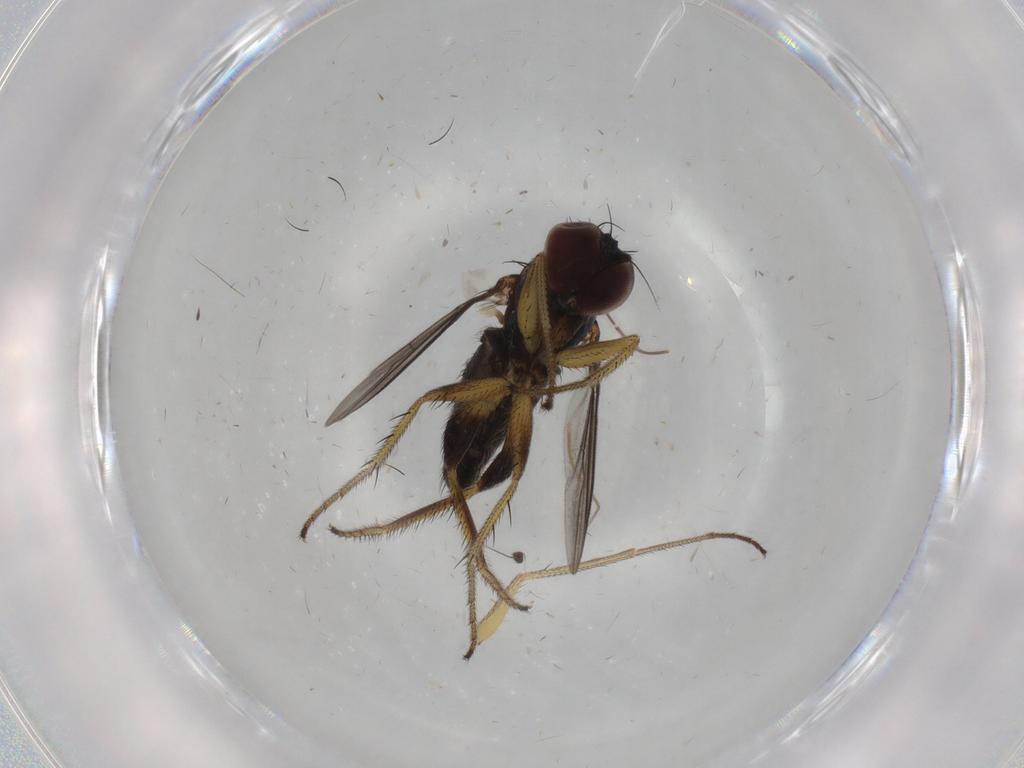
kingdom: Animalia
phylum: Arthropoda
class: Insecta
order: Diptera
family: Dolichopodidae
